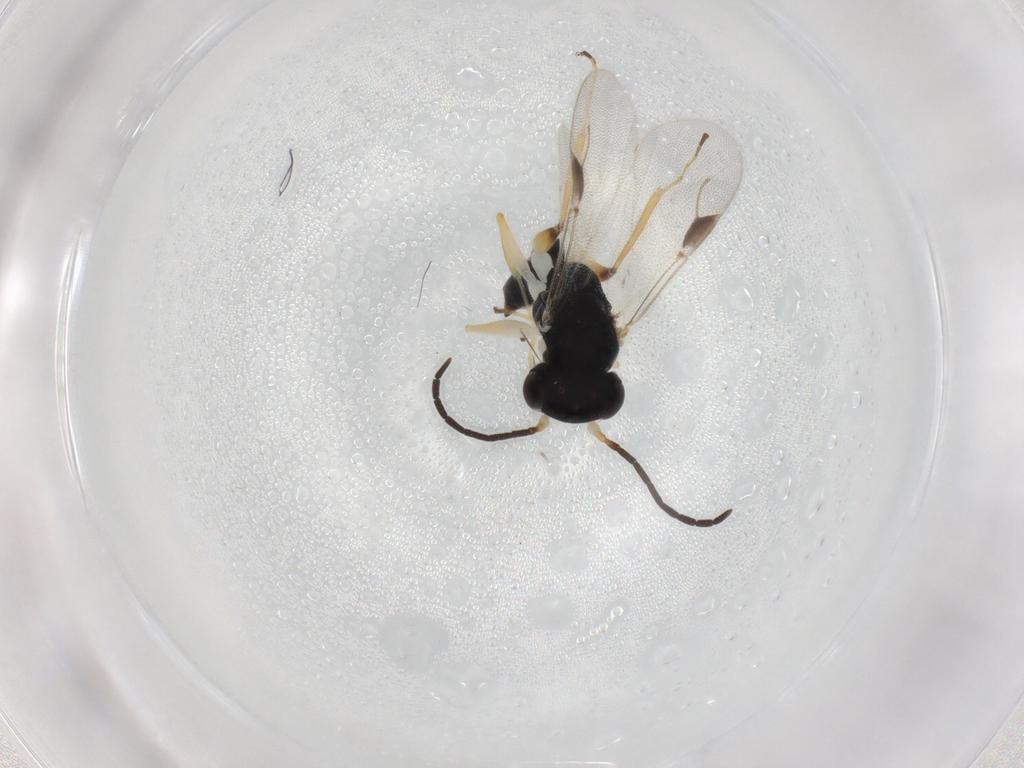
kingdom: Animalia
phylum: Arthropoda
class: Insecta
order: Hymenoptera
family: Dryinidae
